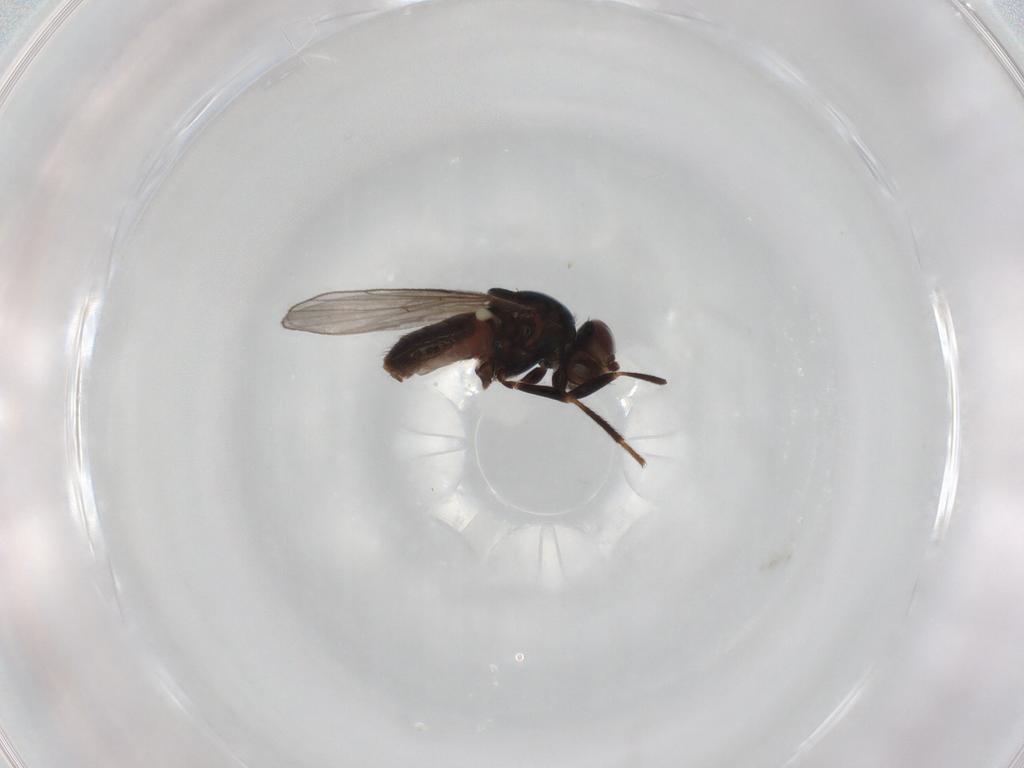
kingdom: Animalia
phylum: Arthropoda
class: Insecta
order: Diptera
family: Chloropidae
